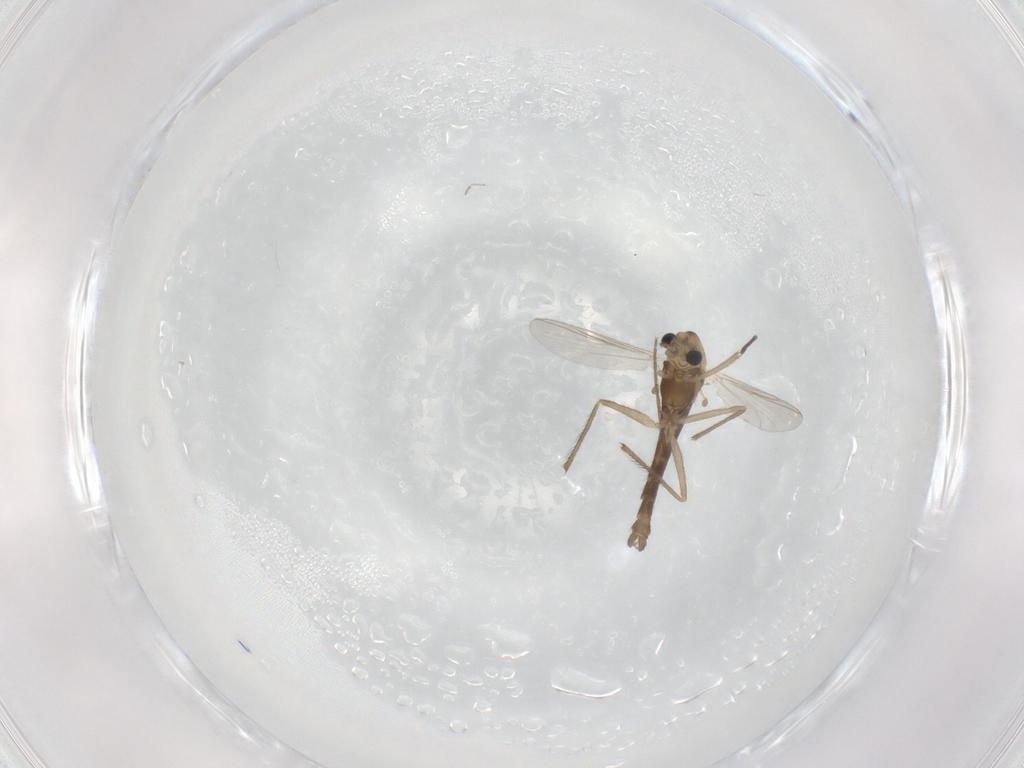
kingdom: Animalia
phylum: Arthropoda
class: Insecta
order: Diptera
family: Chironomidae
